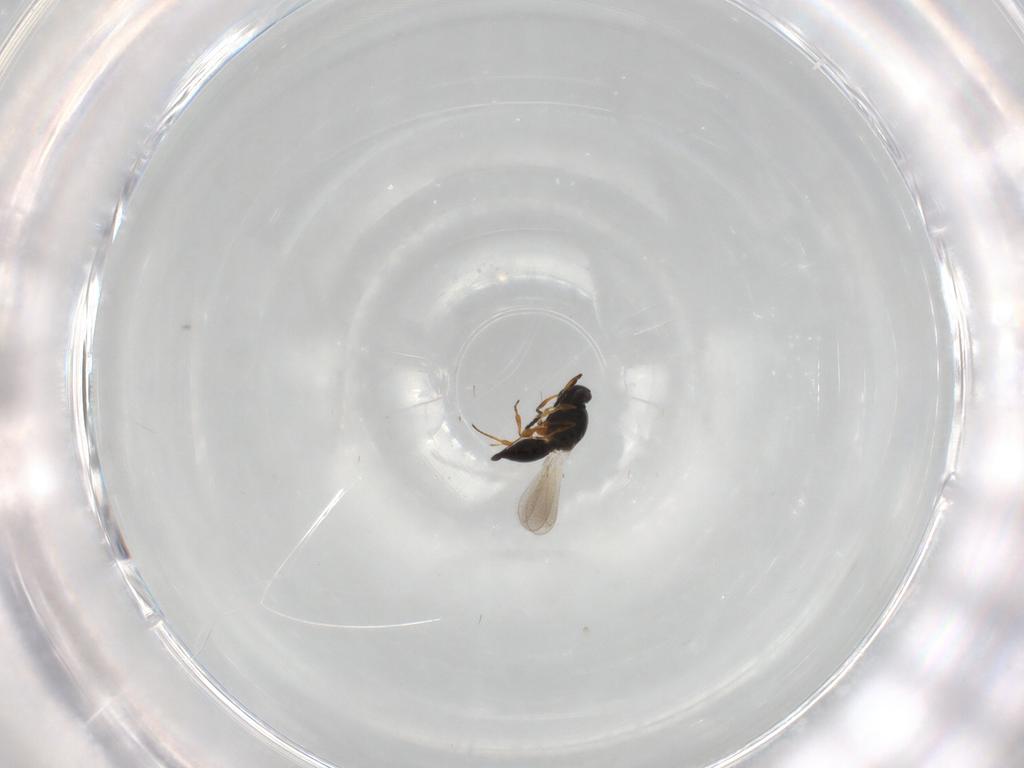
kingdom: Animalia
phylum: Arthropoda
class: Insecta
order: Hymenoptera
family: Platygastridae
